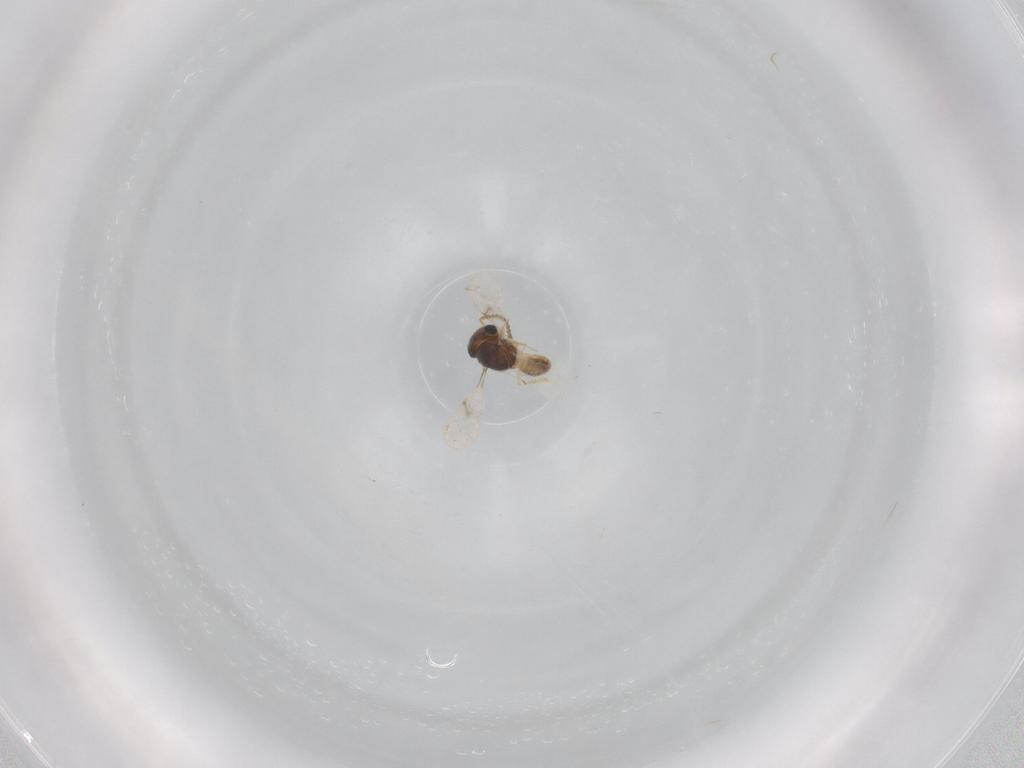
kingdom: Animalia
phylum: Arthropoda
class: Insecta
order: Hymenoptera
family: Scelionidae
